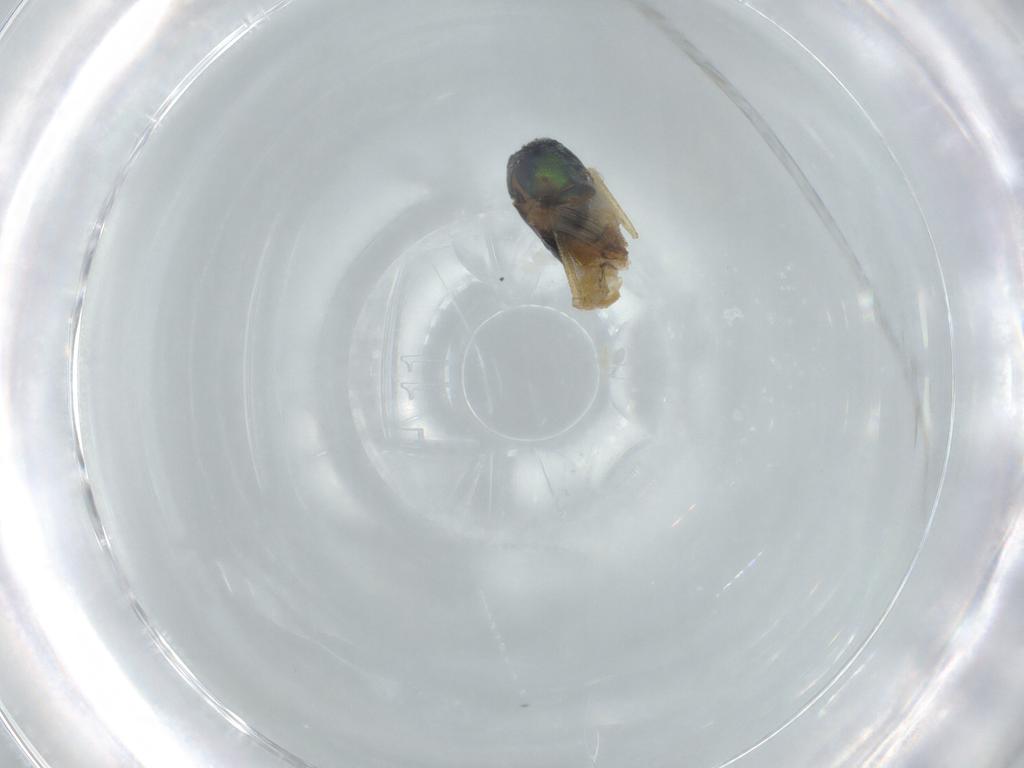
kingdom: Animalia
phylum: Arthropoda
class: Insecta
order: Diptera
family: Dolichopodidae
